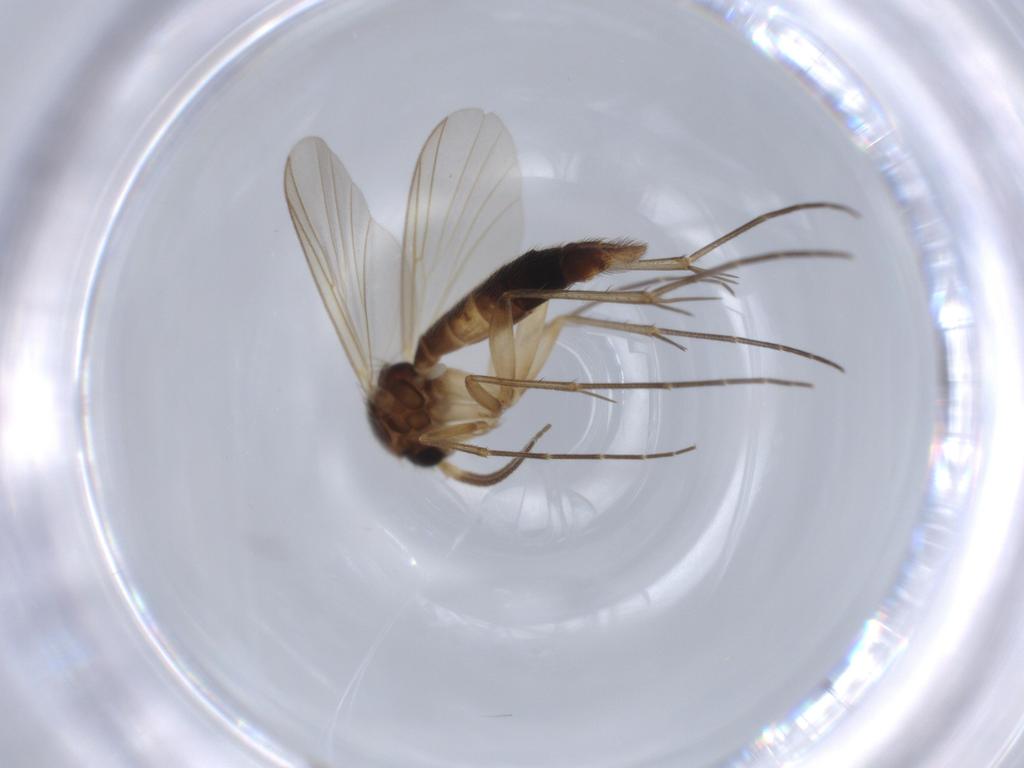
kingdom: Animalia
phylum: Arthropoda
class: Insecta
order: Diptera
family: Mycetophilidae
